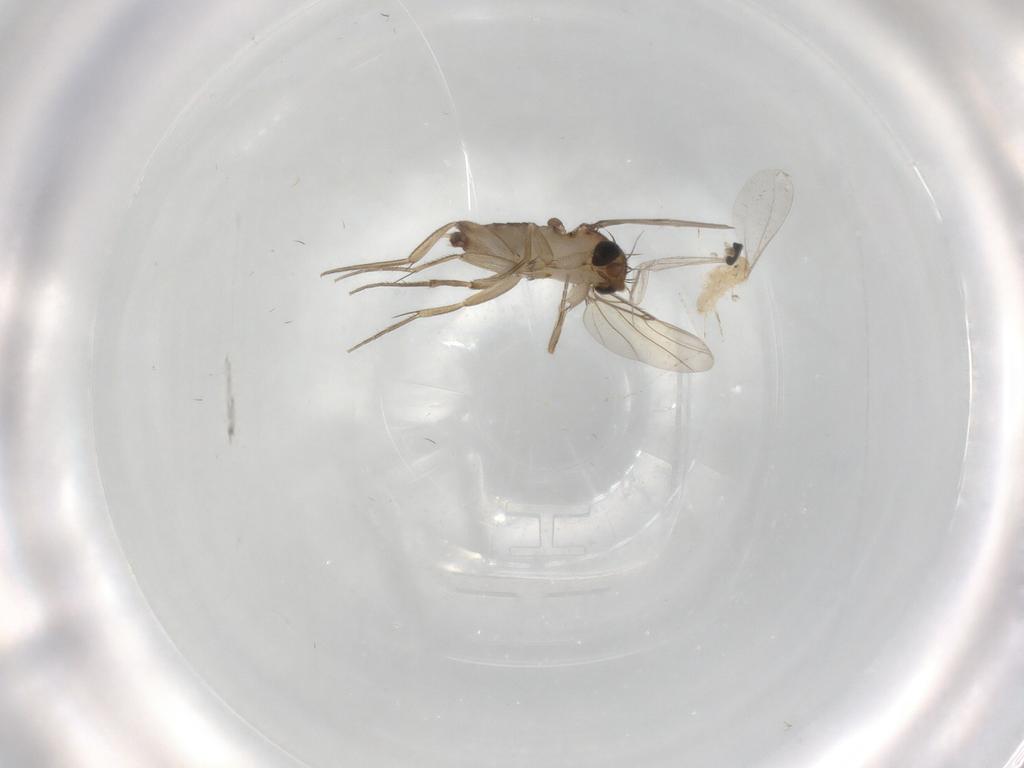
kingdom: Animalia
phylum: Arthropoda
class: Insecta
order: Diptera
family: Cecidomyiidae
